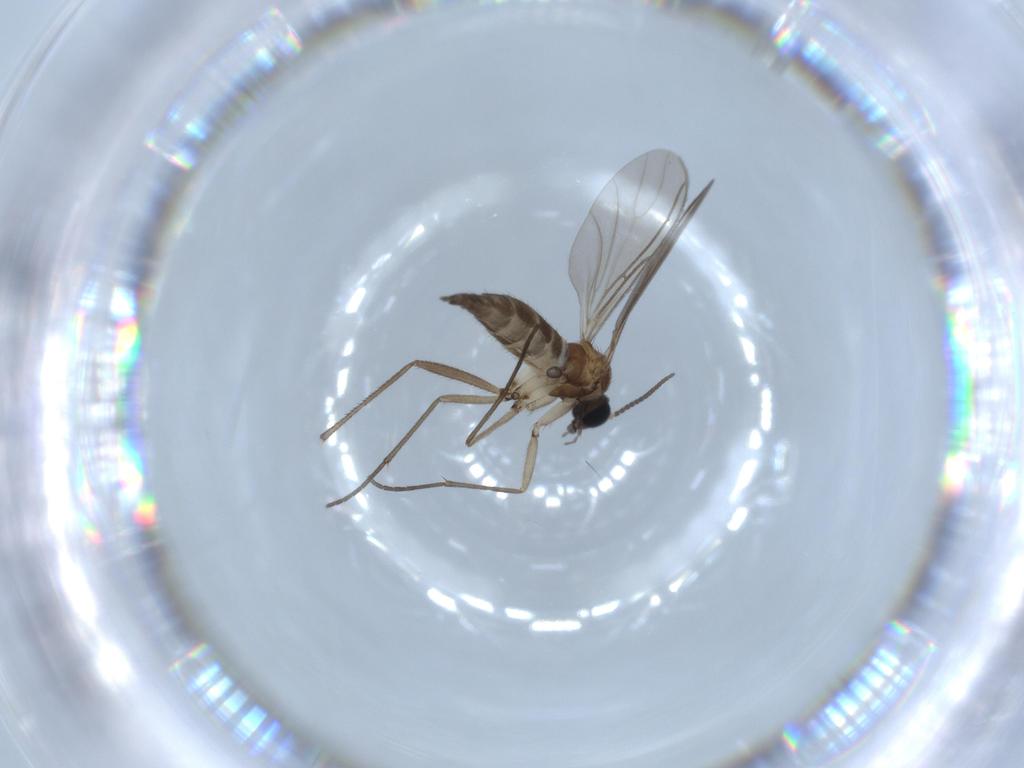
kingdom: Animalia
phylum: Arthropoda
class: Insecta
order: Diptera
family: Sciaridae
